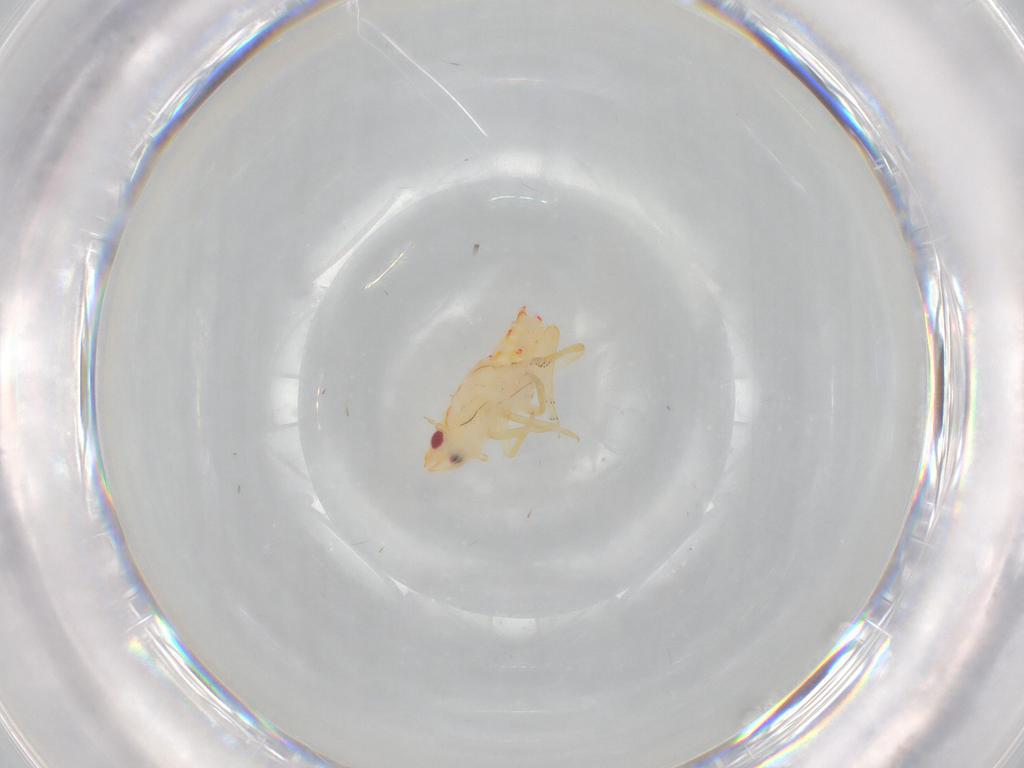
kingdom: Animalia
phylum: Arthropoda
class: Insecta
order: Hemiptera
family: Flatidae
